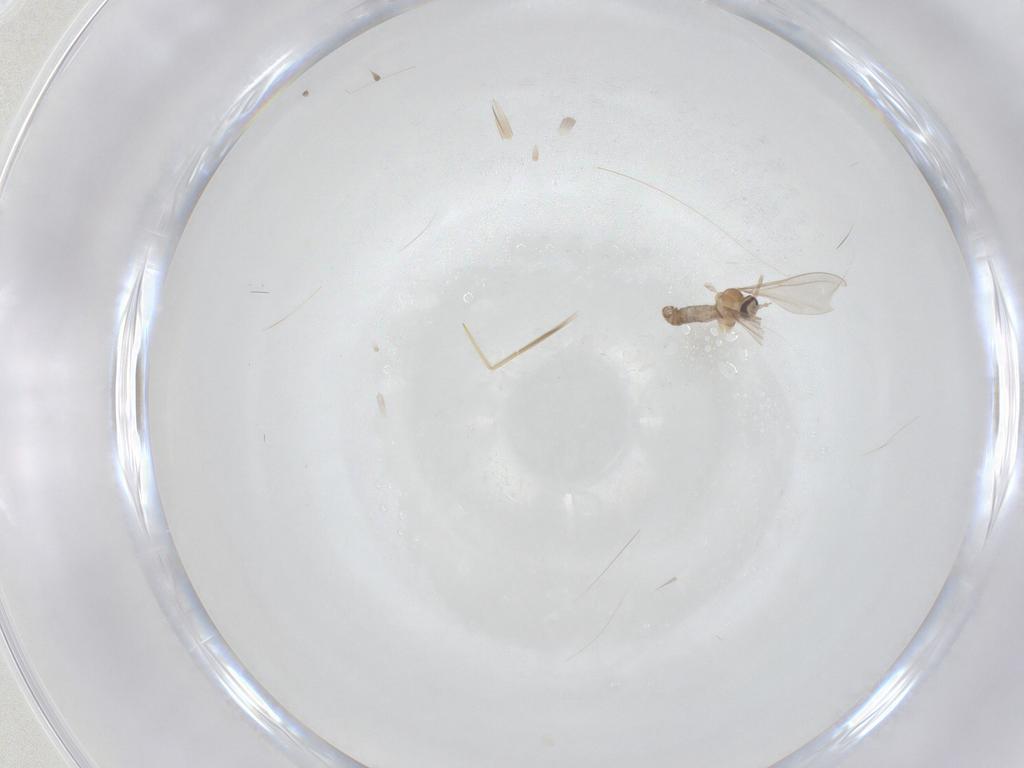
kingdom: Animalia
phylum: Arthropoda
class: Insecta
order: Diptera
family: Cecidomyiidae
